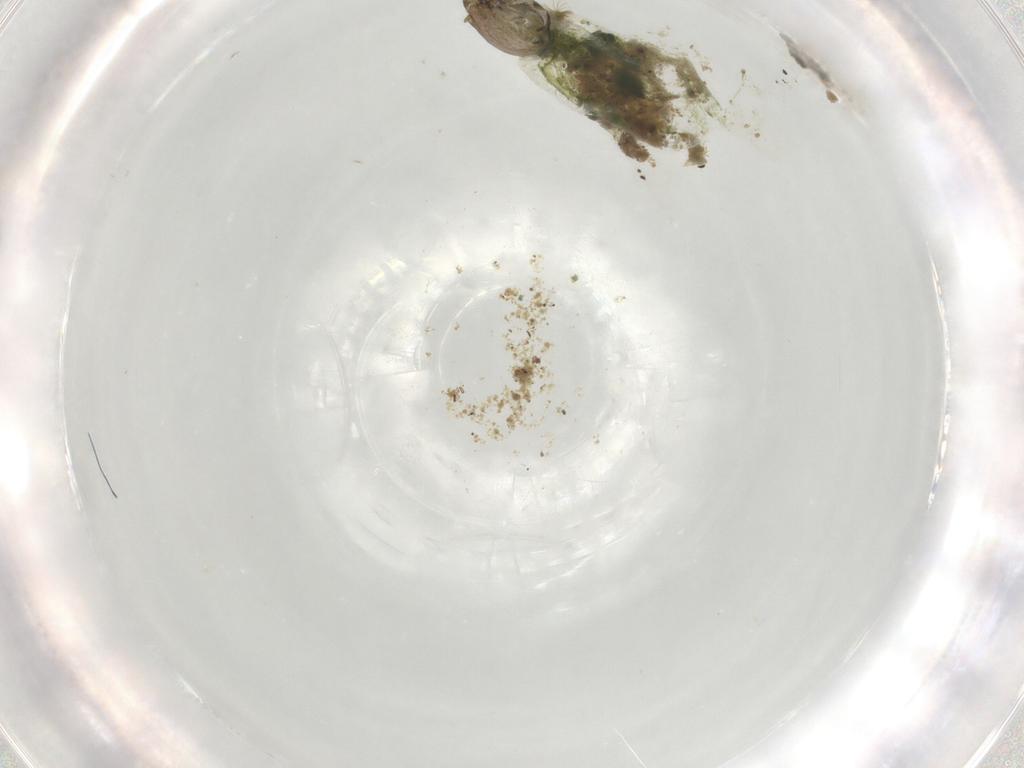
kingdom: Animalia
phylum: Arthropoda
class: Insecta
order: Diptera
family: Chironomidae
